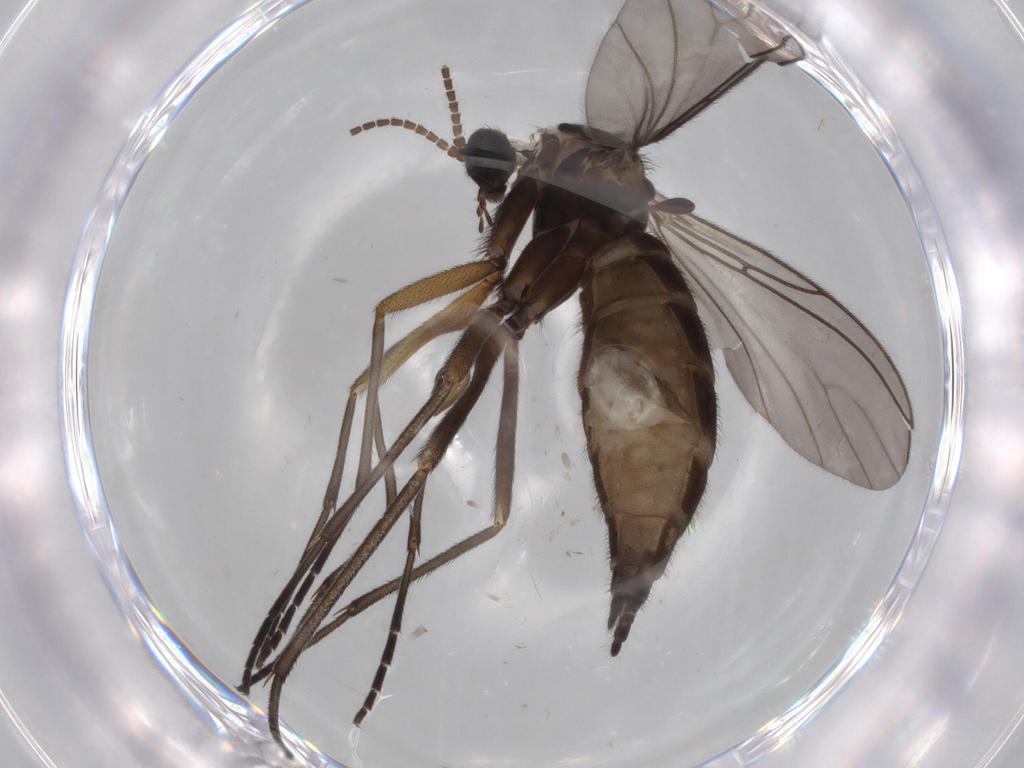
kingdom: Animalia
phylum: Arthropoda
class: Insecta
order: Diptera
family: Sciaridae
